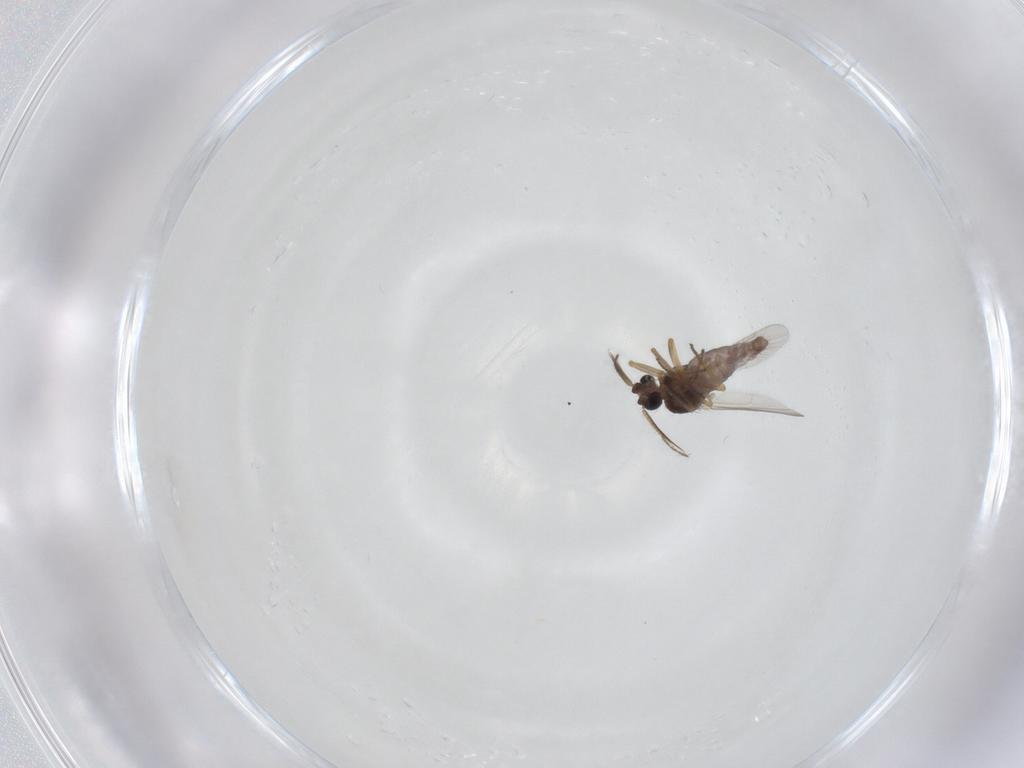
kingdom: Animalia
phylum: Arthropoda
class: Insecta
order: Diptera
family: Ceratopogonidae
